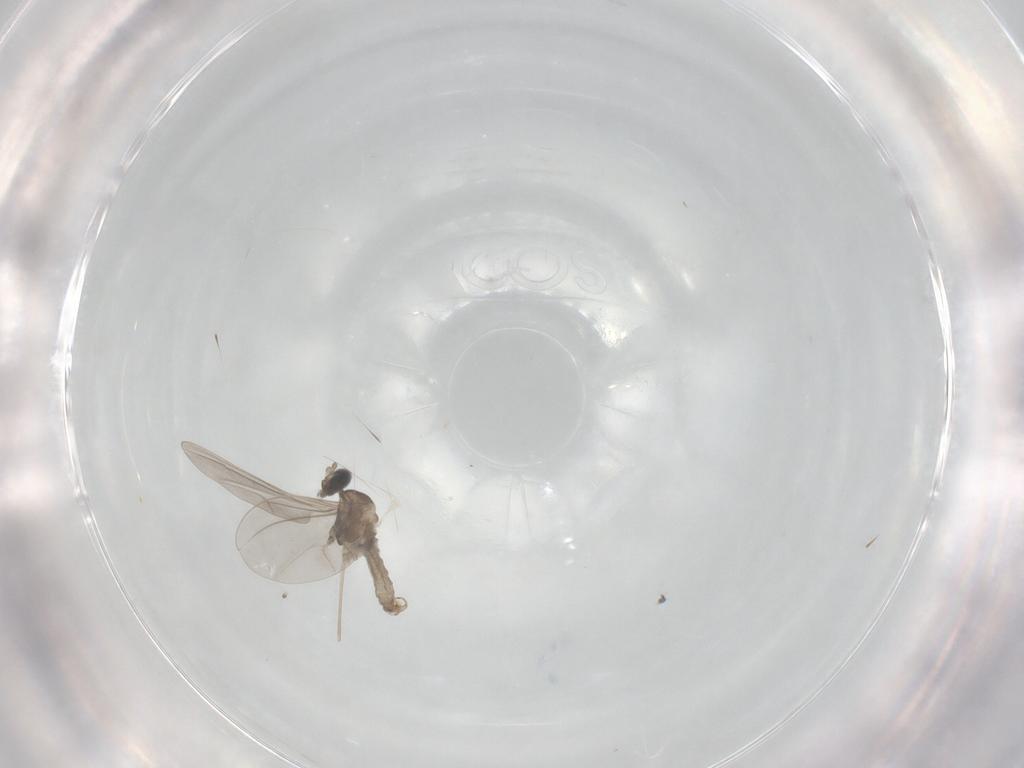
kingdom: Animalia
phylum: Arthropoda
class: Insecta
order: Diptera
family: Cecidomyiidae
